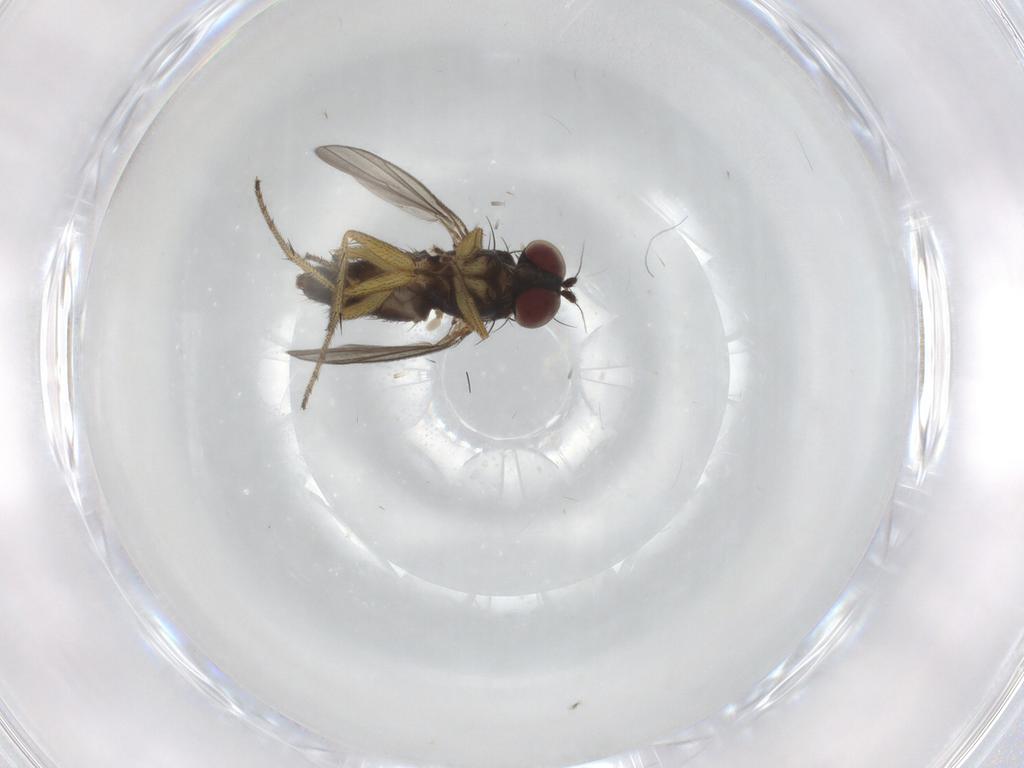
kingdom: Animalia
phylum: Arthropoda
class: Insecta
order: Diptera
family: Dolichopodidae
